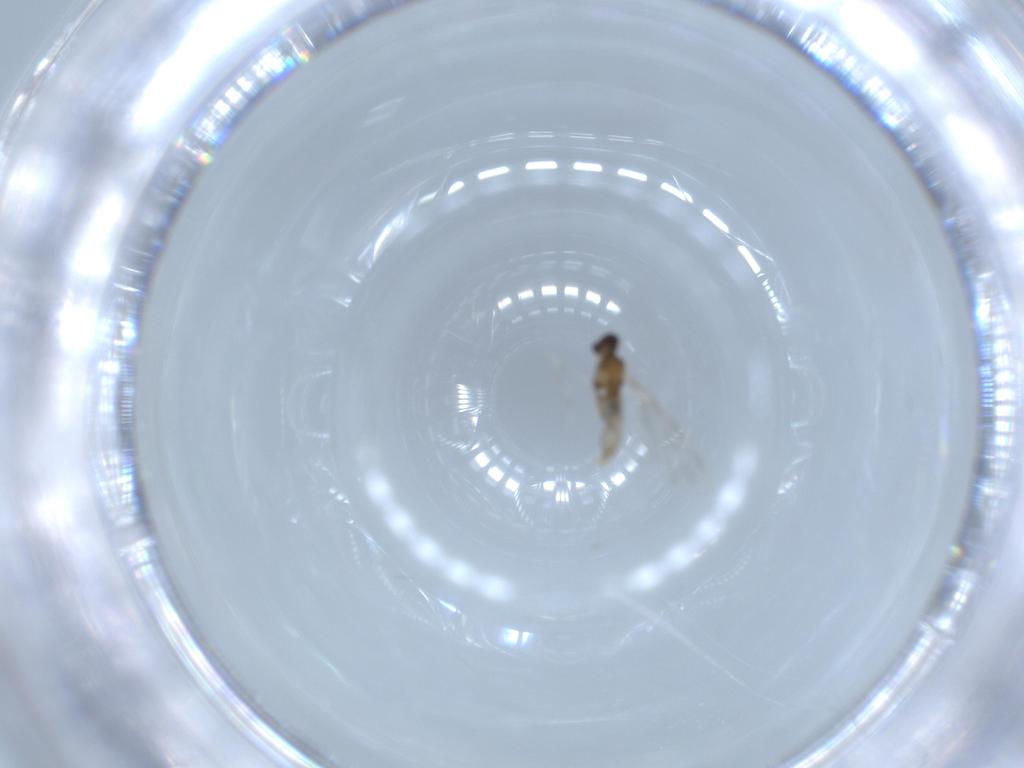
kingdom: Animalia
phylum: Arthropoda
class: Insecta
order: Diptera
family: Cecidomyiidae
